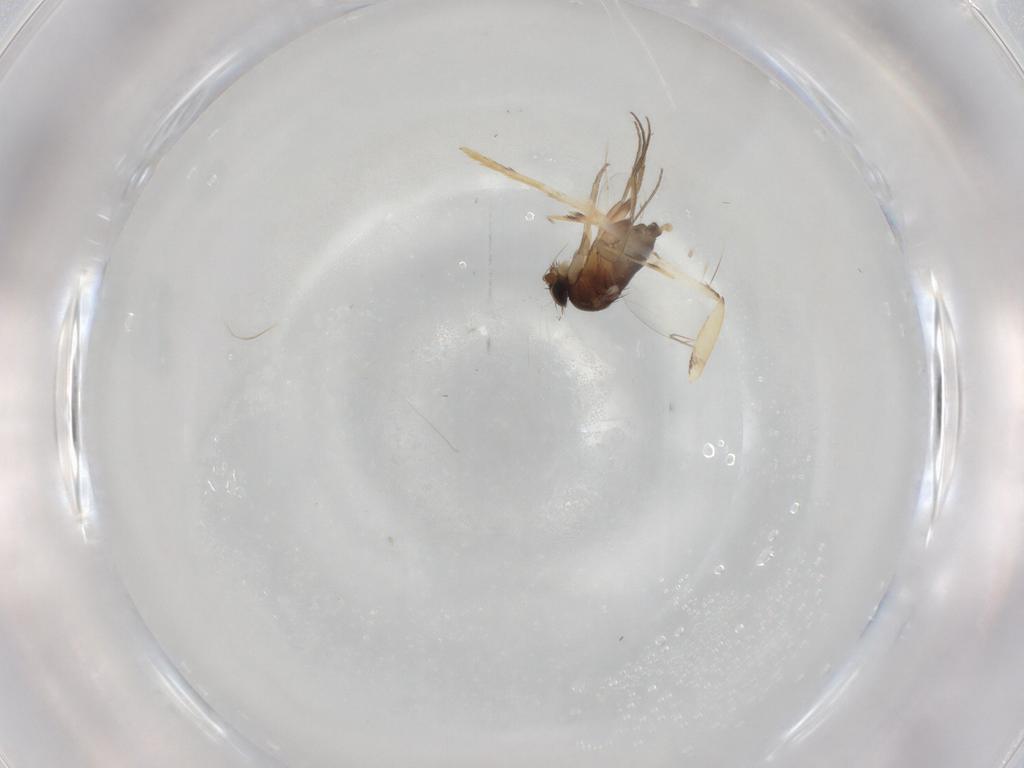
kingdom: Animalia
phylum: Arthropoda
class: Insecta
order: Diptera
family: Phoridae
